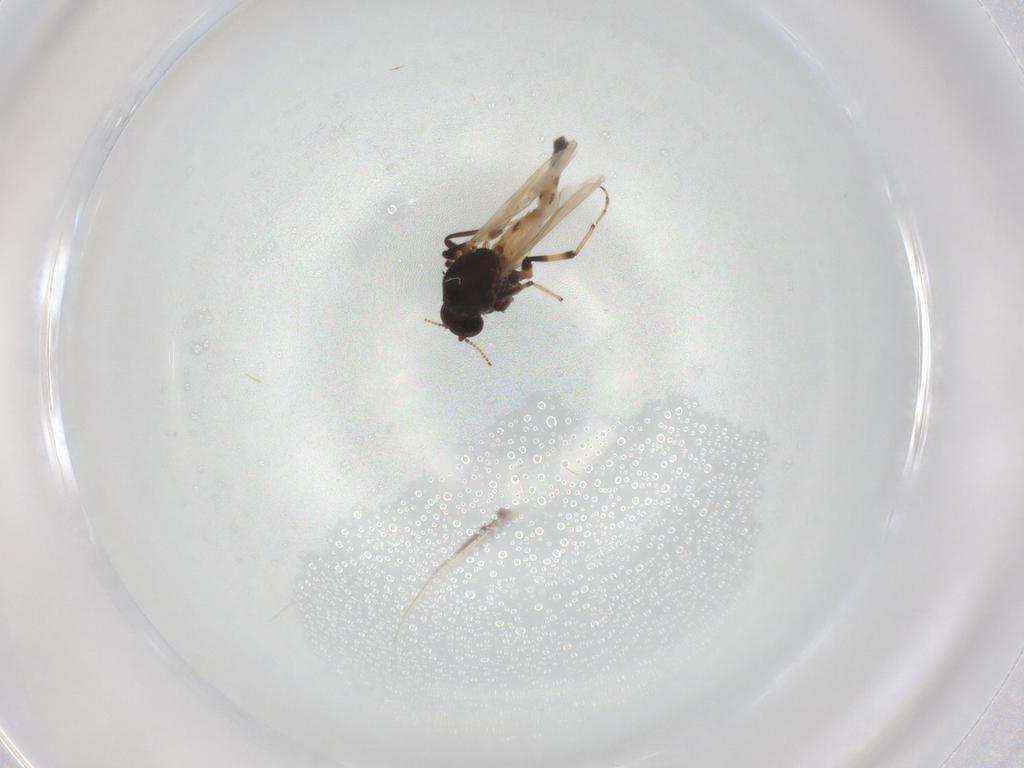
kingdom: Animalia
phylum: Arthropoda
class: Insecta
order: Diptera
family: Ceratopogonidae
